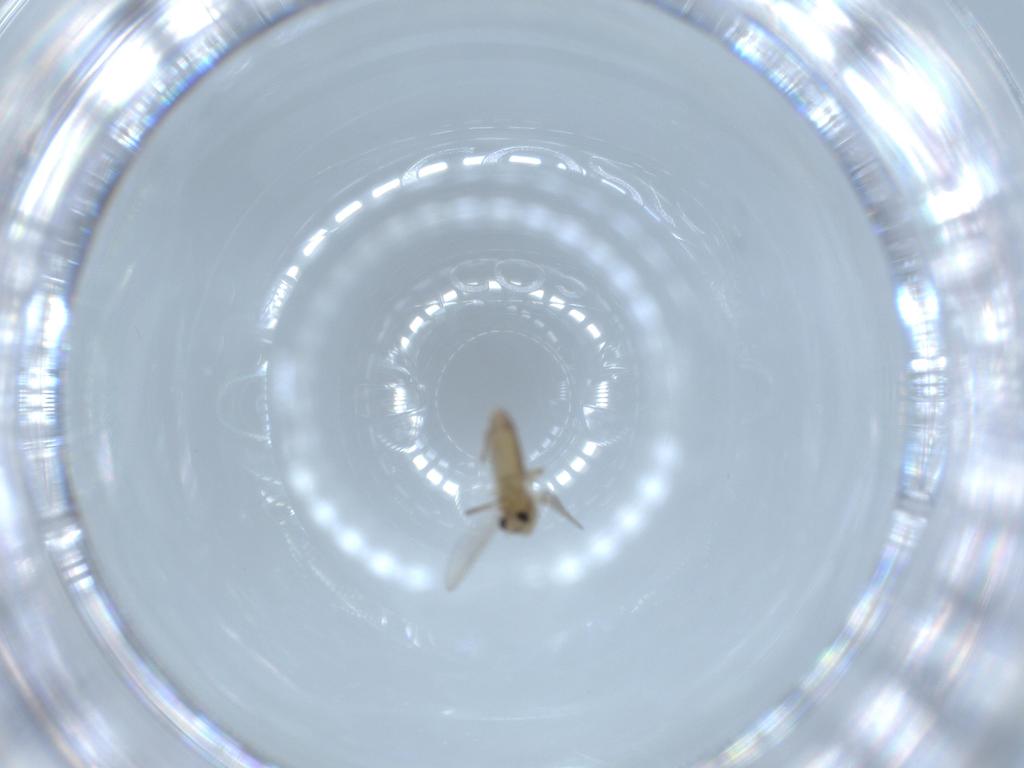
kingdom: Animalia
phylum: Arthropoda
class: Insecta
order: Diptera
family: Chironomidae
